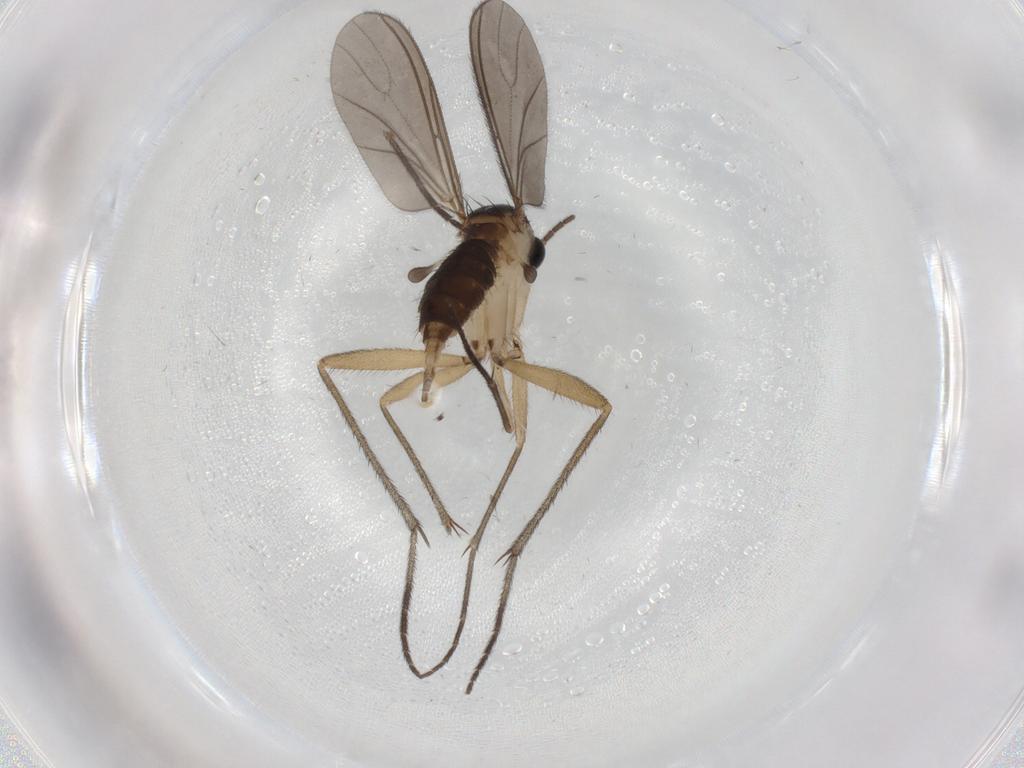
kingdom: Animalia
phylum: Arthropoda
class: Insecta
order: Diptera
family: Sciaridae
